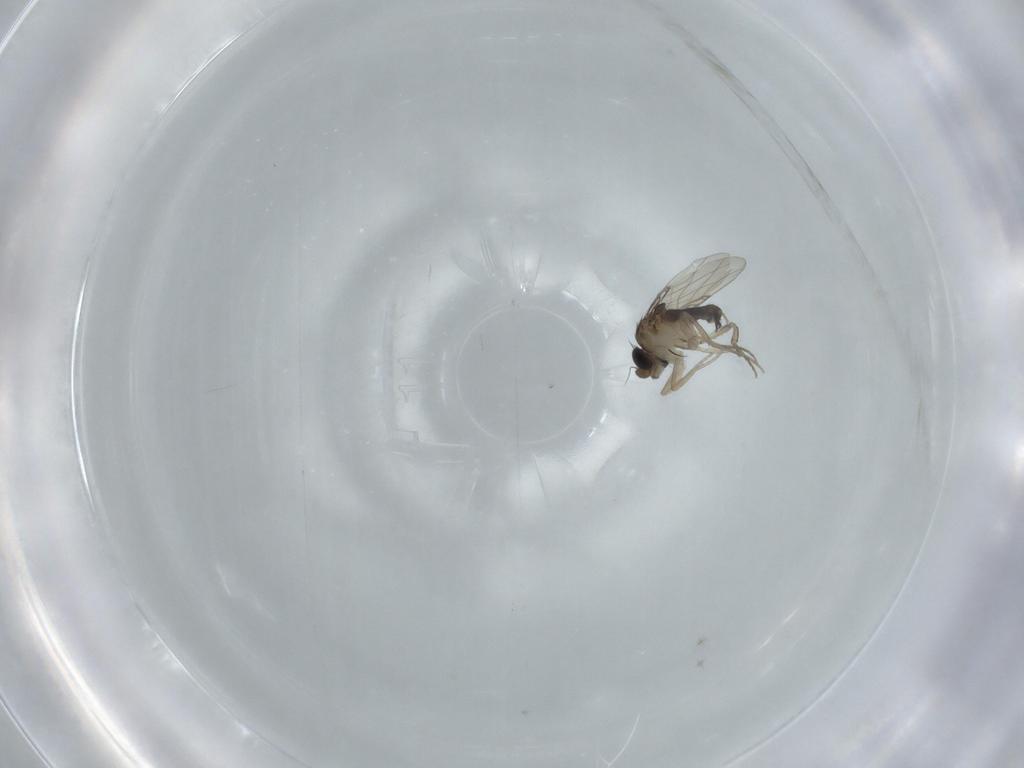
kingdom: Animalia
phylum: Arthropoda
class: Insecta
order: Diptera
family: Phoridae
